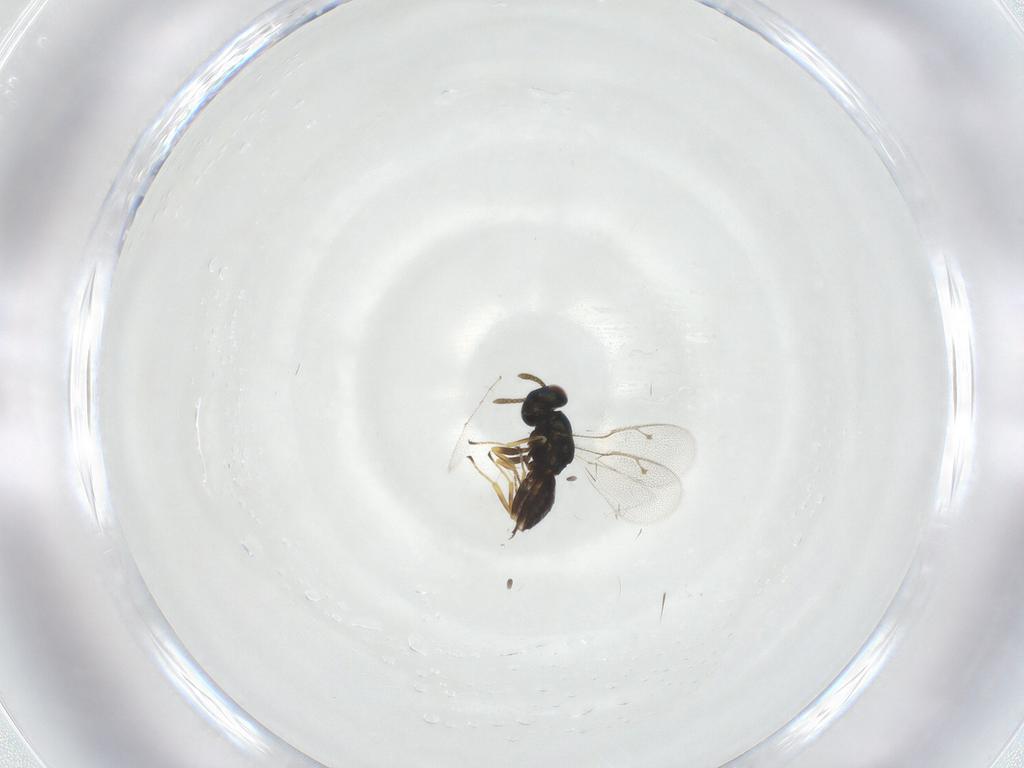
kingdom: Animalia
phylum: Arthropoda
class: Insecta
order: Hymenoptera
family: Pteromalidae
